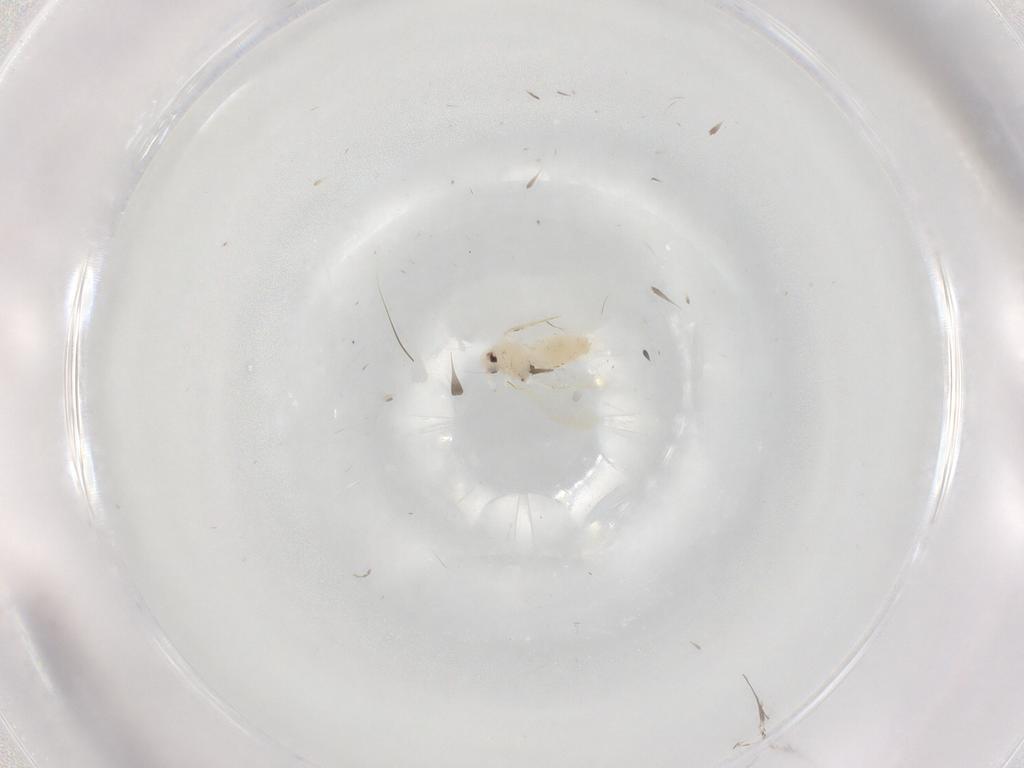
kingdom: Animalia
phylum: Arthropoda
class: Insecta
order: Hemiptera
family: Aleyrodidae
